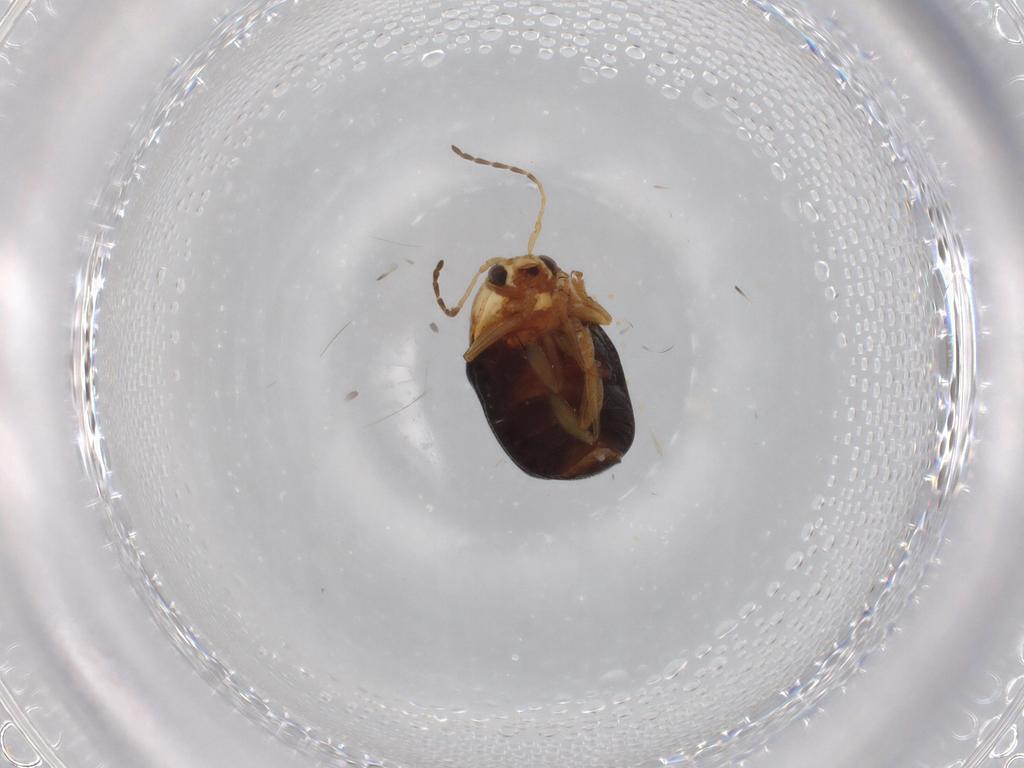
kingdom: Animalia
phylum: Arthropoda
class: Insecta
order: Coleoptera
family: Chrysomelidae
